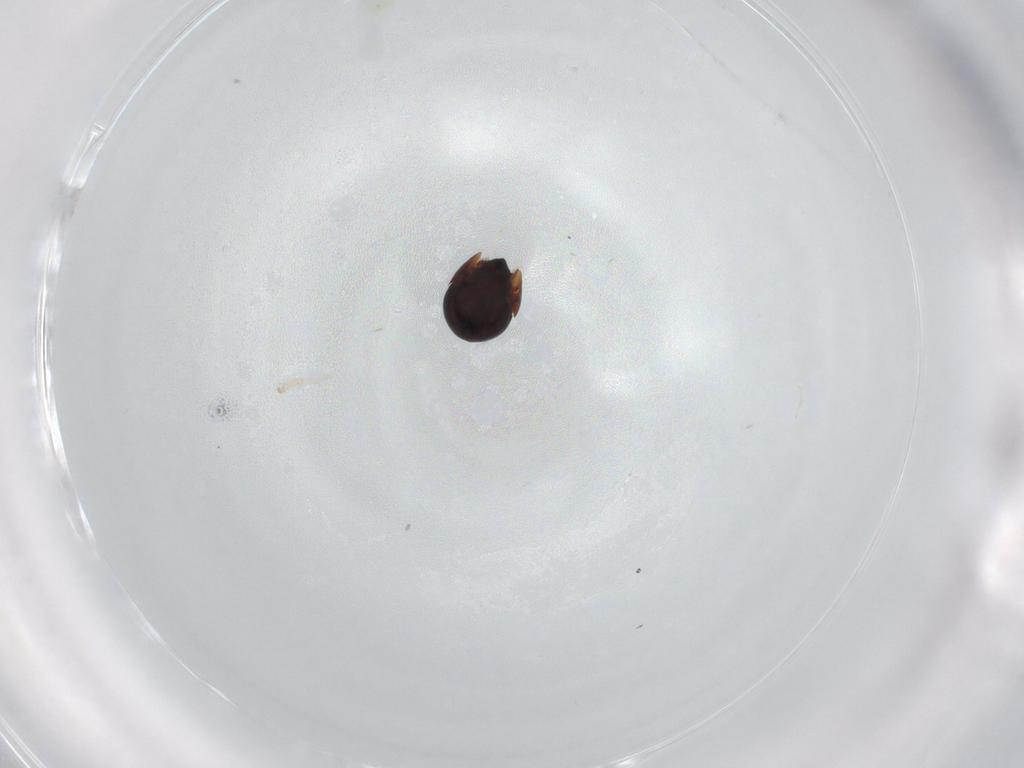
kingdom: Animalia
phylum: Arthropoda
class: Arachnida
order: Sarcoptiformes
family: Ceratozetidae
